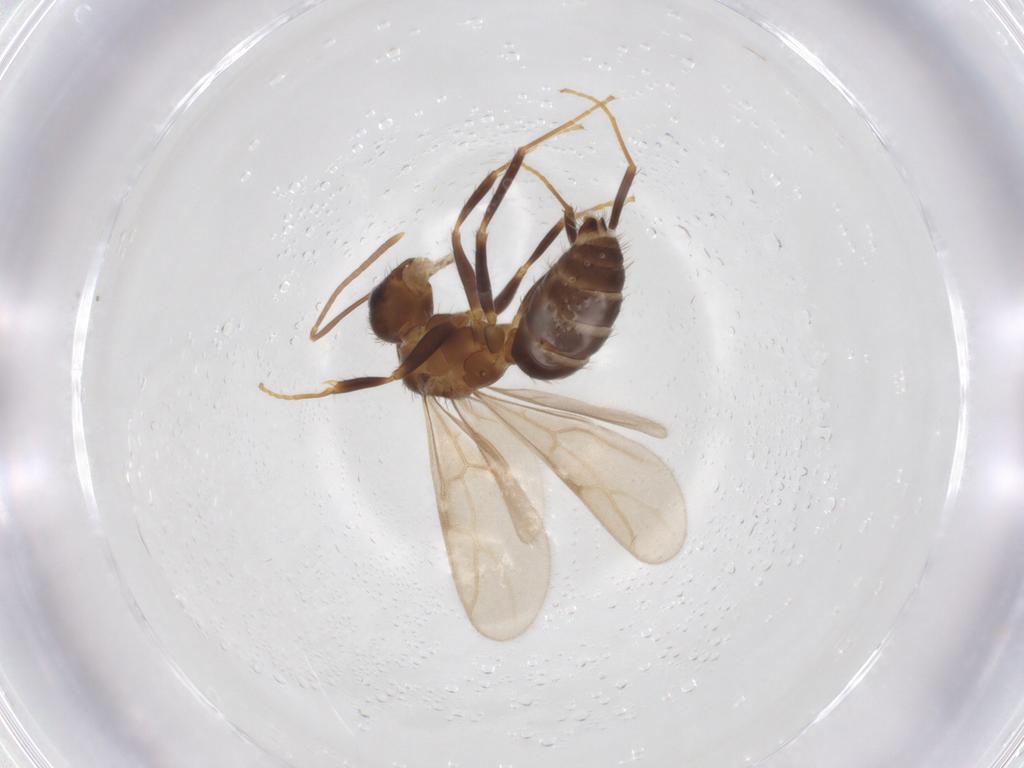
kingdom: Animalia
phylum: Arthropoda
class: Insecta
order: Hymenoptera
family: Formicidae
